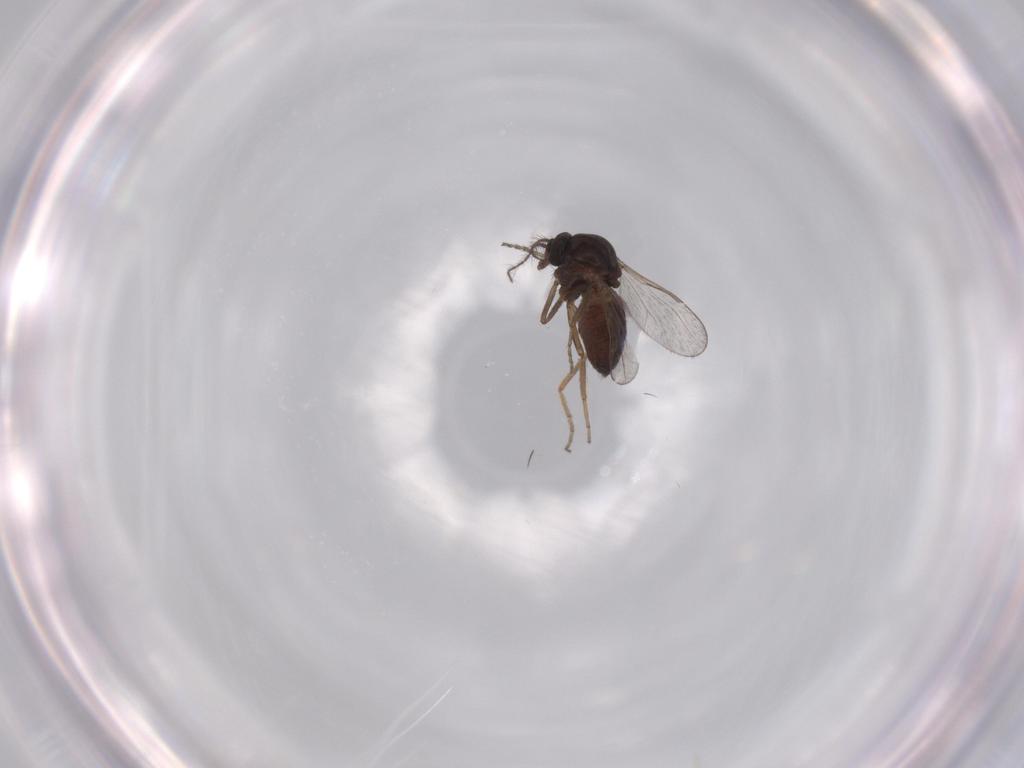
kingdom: Animalia
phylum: Arthropoda
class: Insecta
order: Diptera
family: Ceratopogonidae
